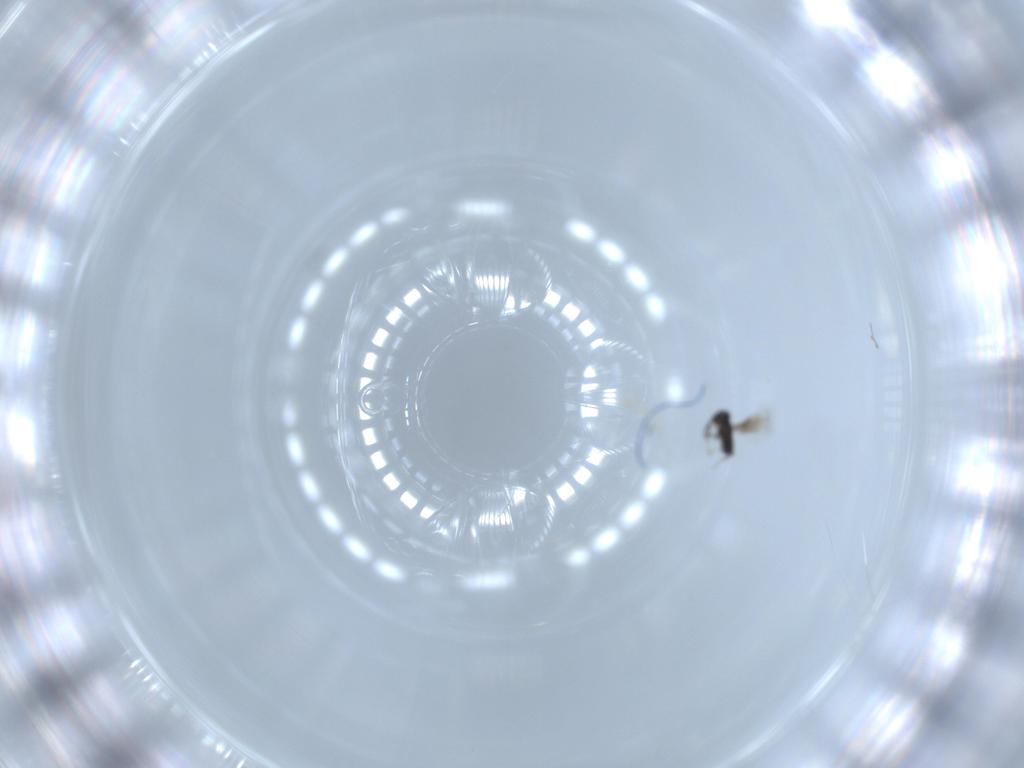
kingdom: Animalia
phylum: Arthropoda
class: Insecta
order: Hymenoptera
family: Signiphoridae
